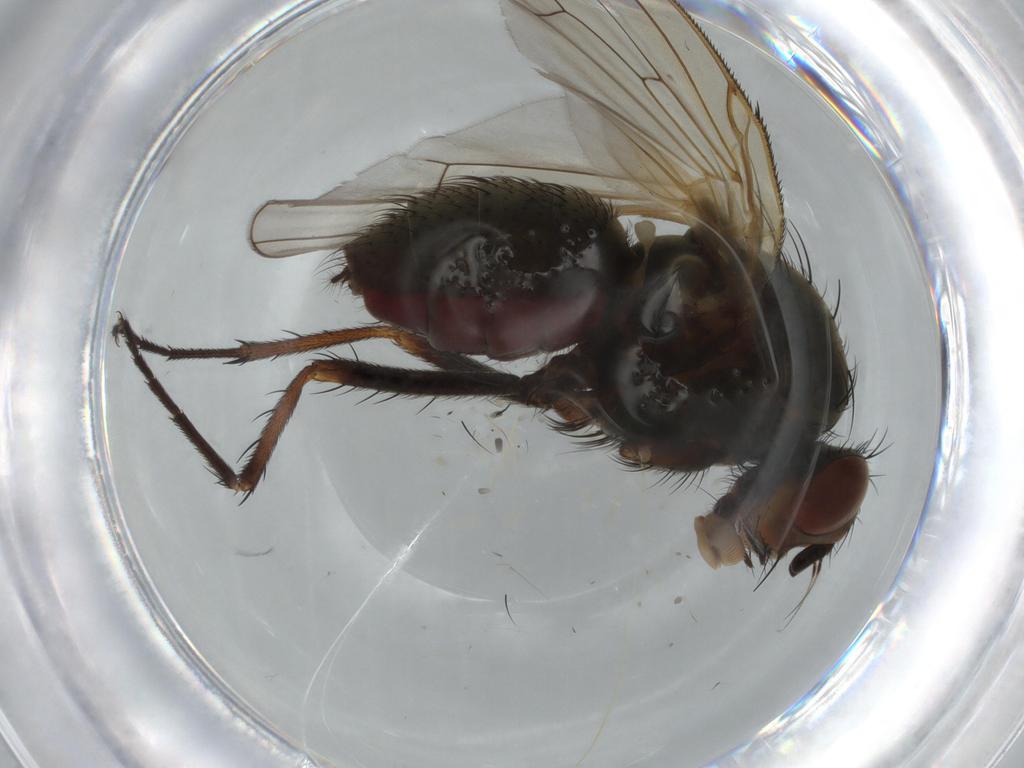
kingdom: Animalia
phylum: Arthropoda
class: Insecta
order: Diptera
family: Anthomyiidae
